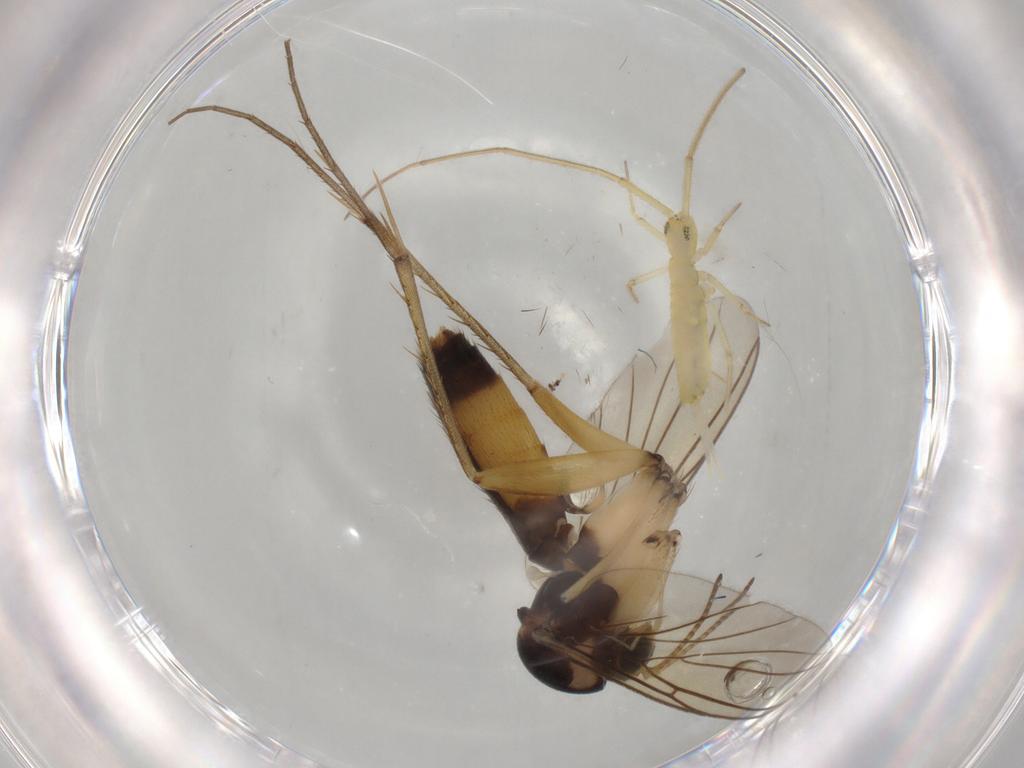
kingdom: Animalia
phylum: Arthropoda
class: Insecta
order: Diptera
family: Mycetophilidae
